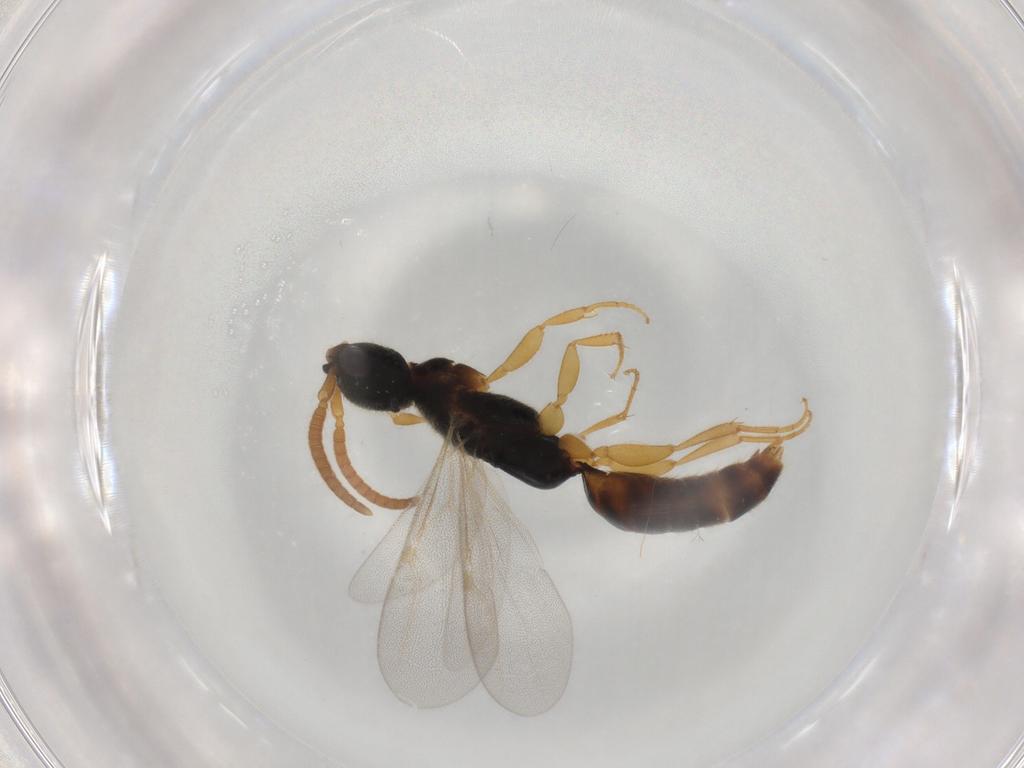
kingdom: Animalia
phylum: Arthropoda
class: Insecta
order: Hymenoptera
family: Bethylidae
